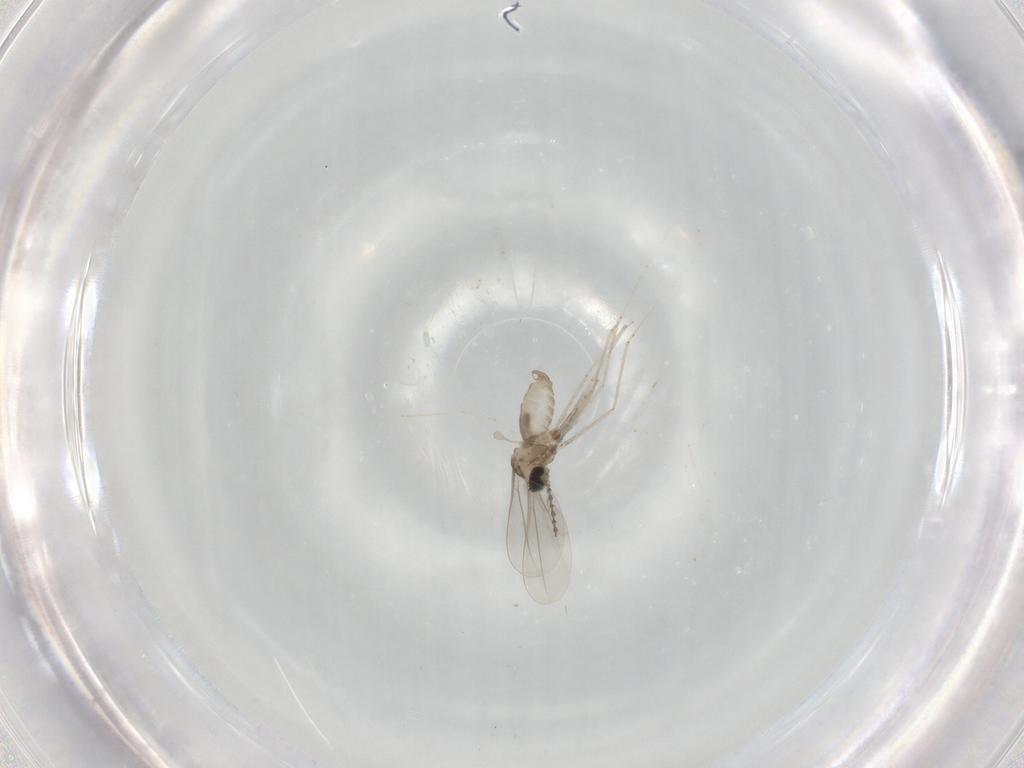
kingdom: Animalia
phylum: Arthropoda
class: Insecta
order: Diptera
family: Cecidomyiidae
